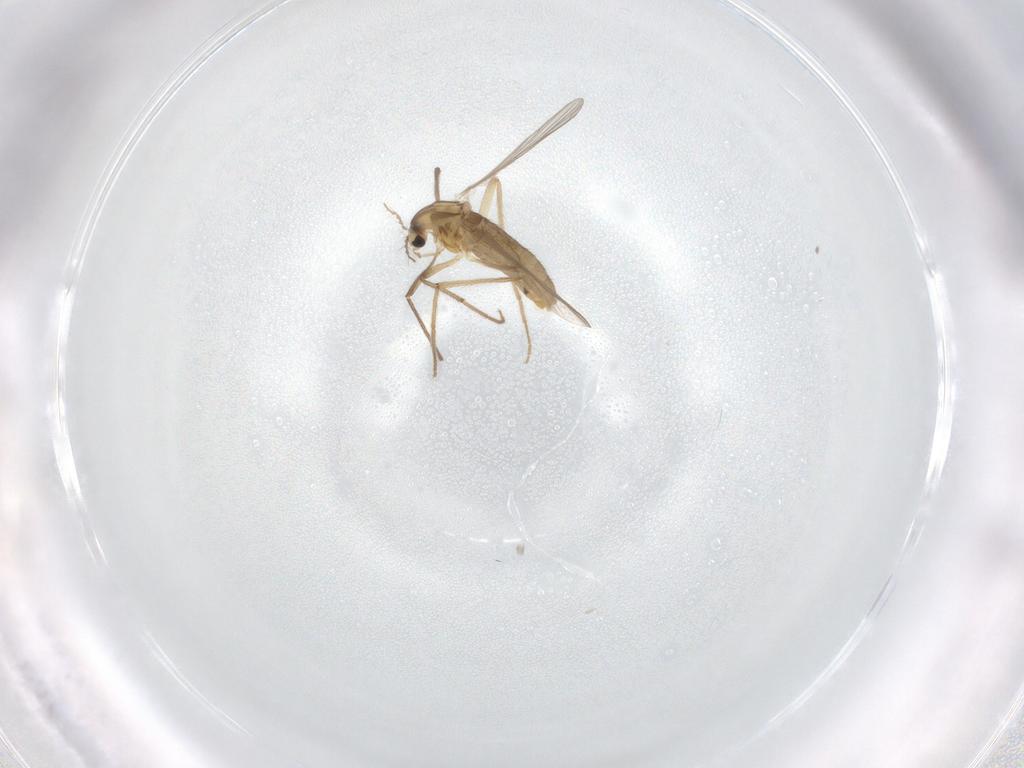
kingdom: Animalia
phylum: Arthropoda
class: Insecta
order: Diptera
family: Chironomidae
